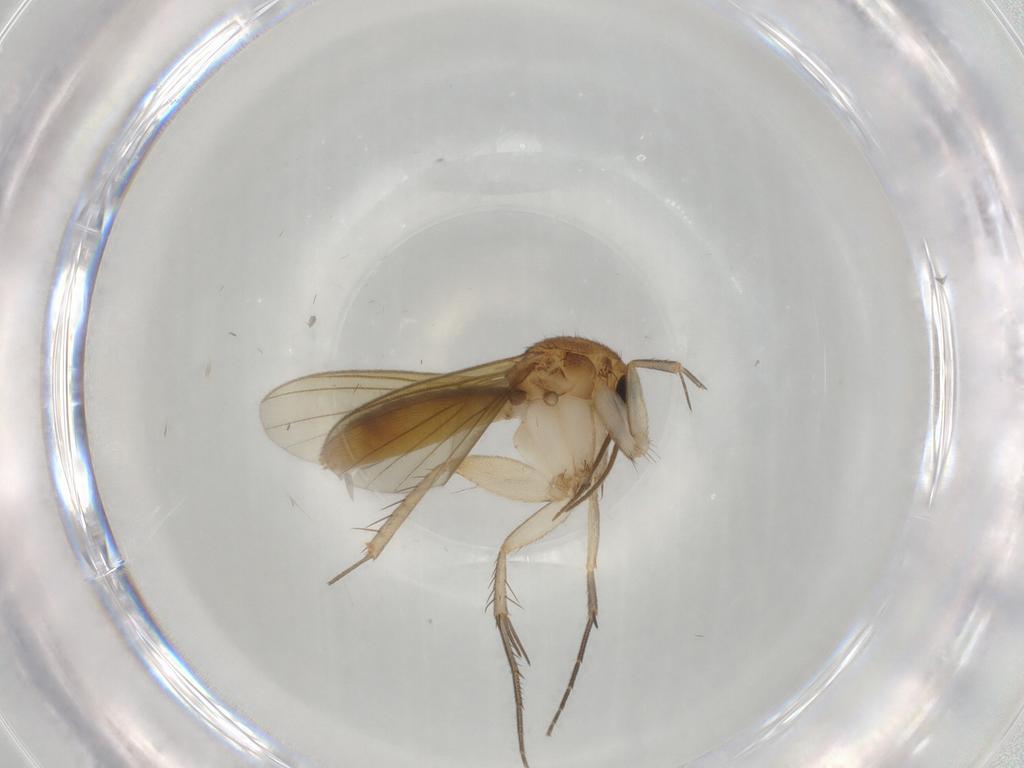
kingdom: Animalia
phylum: Arthropoda
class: Insecta
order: Diptera
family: Mycetophilidae
